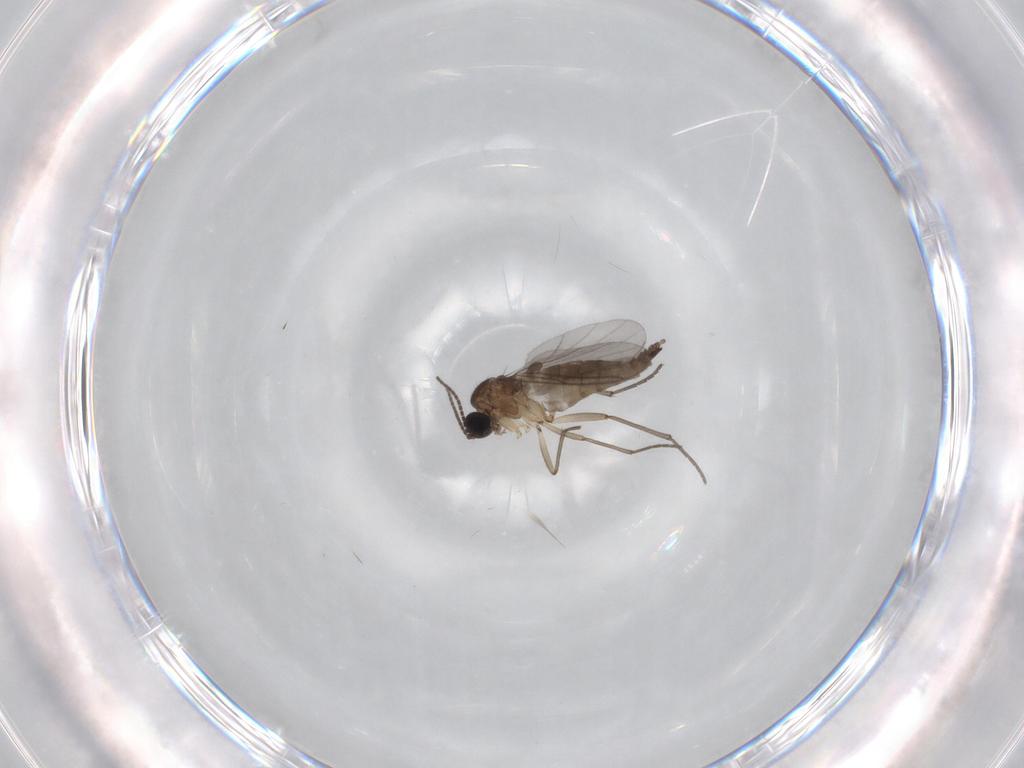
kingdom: Animalia
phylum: Arthropoda
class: Insecta
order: Diptera
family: Sciaridae
